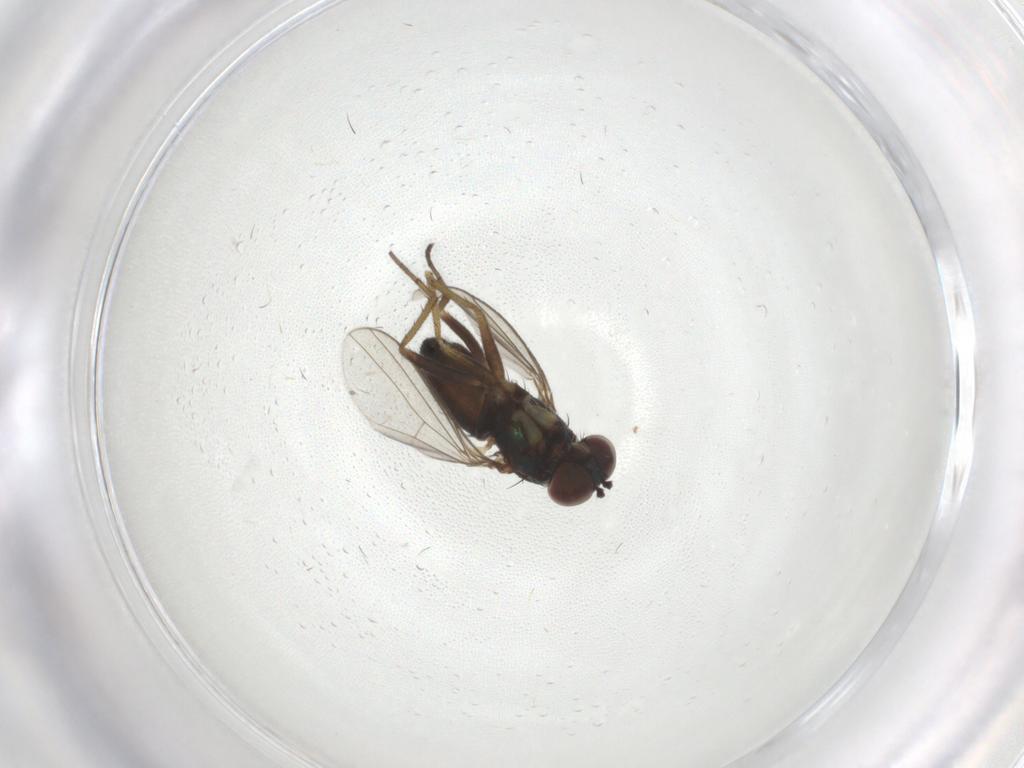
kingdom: Animalia
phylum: Arthropoda
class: Insecta
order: Diptera
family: Dolichopodidae
